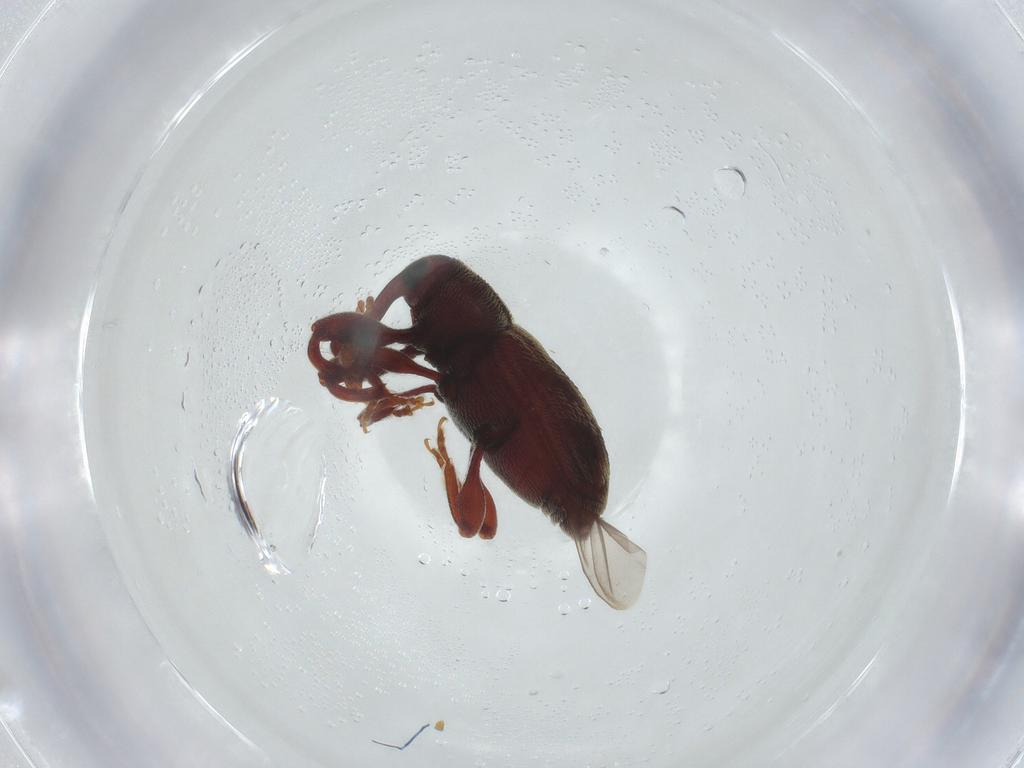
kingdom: Animalia
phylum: Arthropoda
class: Insecta
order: Coleoptera
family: Curculionidae
